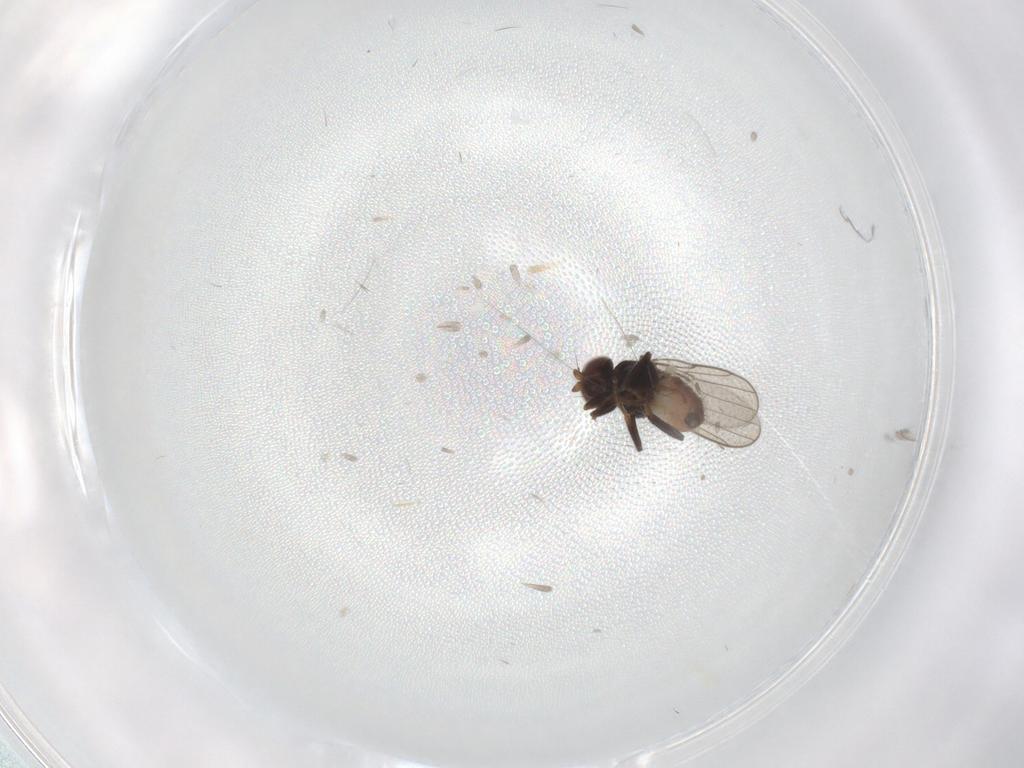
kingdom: Animalia
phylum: Arthropoda
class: Insecta
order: Diptera
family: Chloropidae
